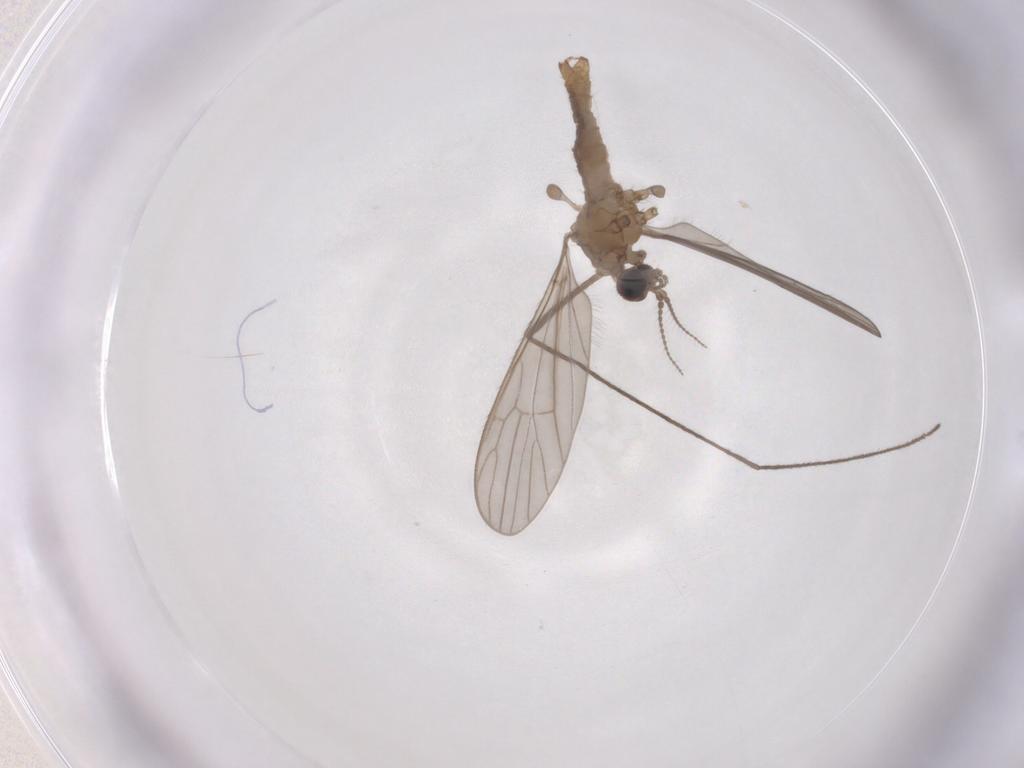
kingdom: Animalia
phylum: Arthropoda
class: Insecta
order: Diptera
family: Limoniidae
